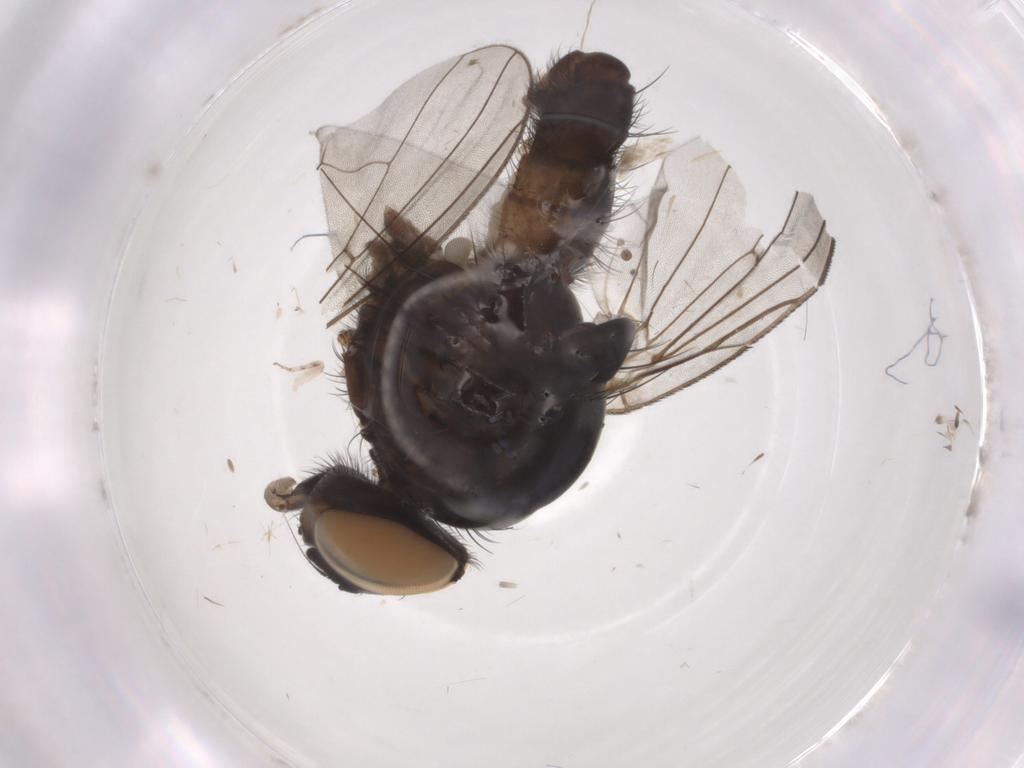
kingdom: Animalia
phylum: Arthropoda
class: Insecta
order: Diptera
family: Anthomyiidae
